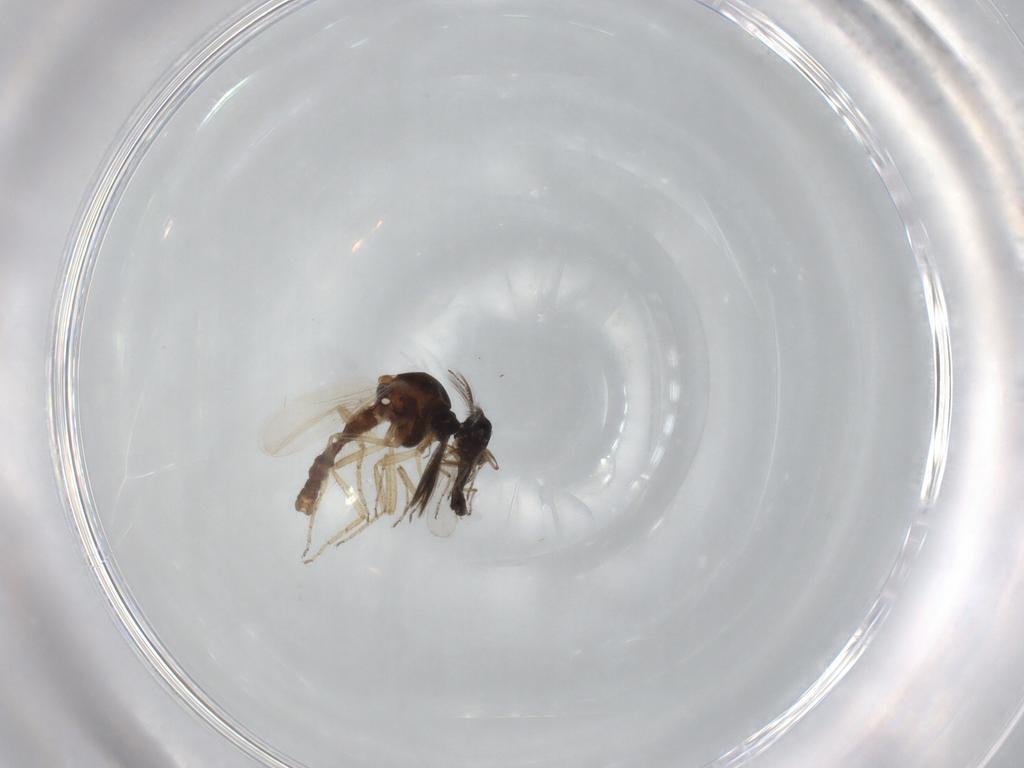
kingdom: Animalia
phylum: Arthropoda
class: Insecta
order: Diptera
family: Ceratopogonidae
